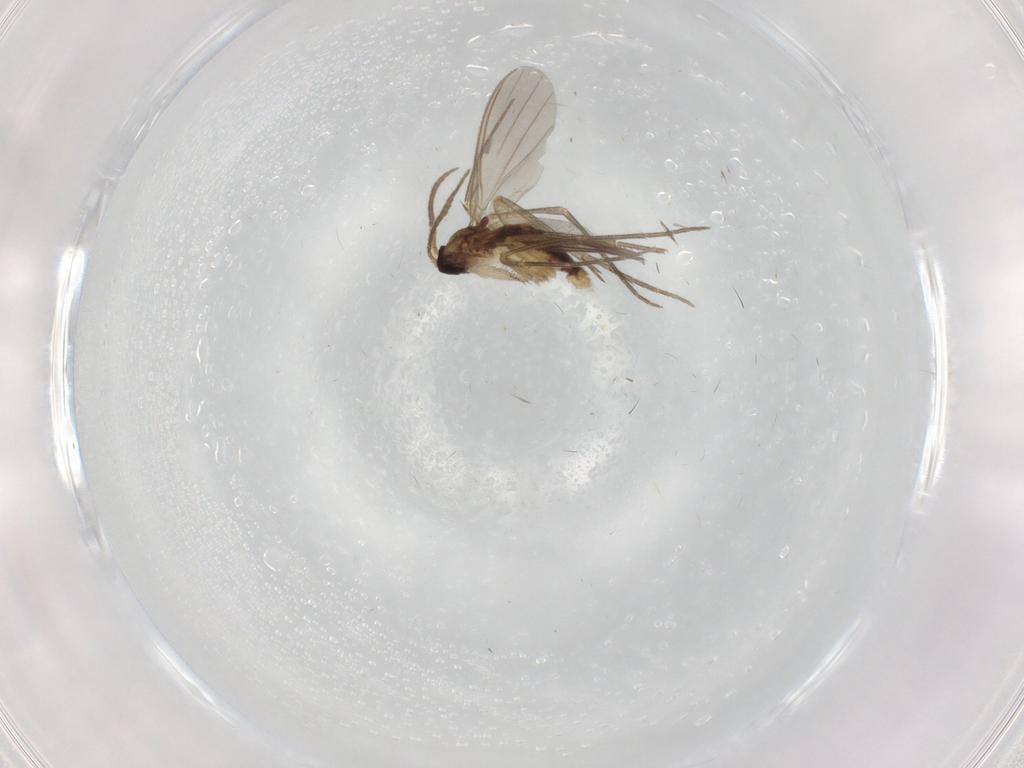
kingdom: Animalia
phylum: Arthropoda
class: Insecta
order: Diptera
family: Mycetophilidae
